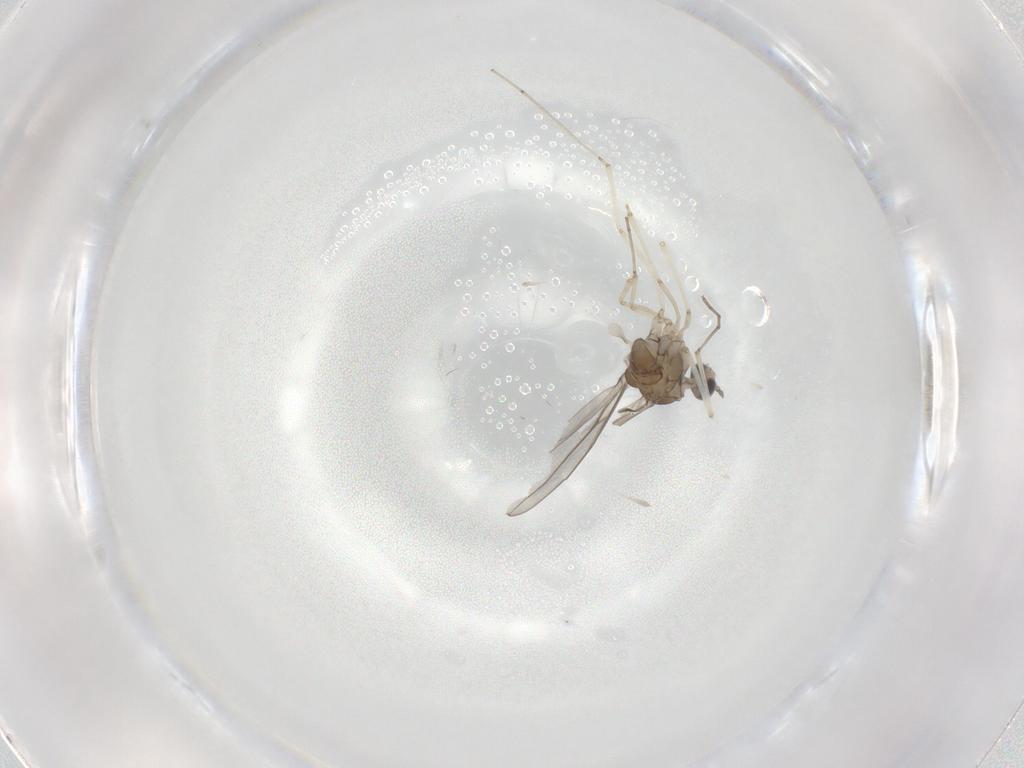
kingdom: Animalia
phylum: Arthropoda
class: Insecta
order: Diptera
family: Cecidomyiidae
